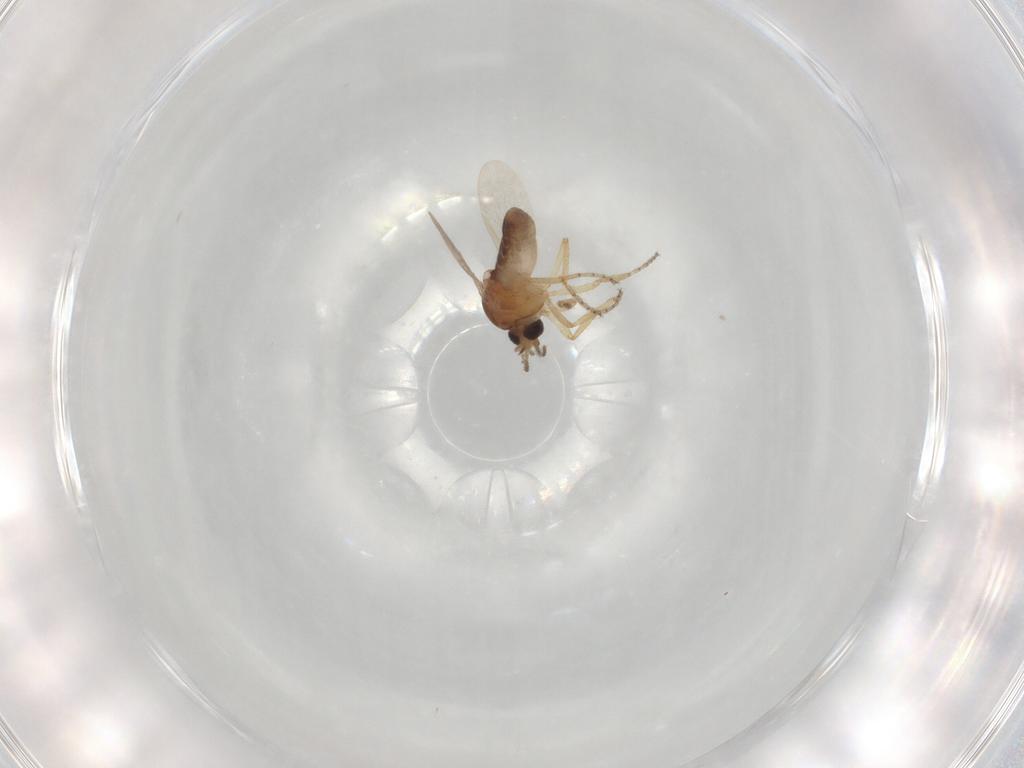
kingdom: Animalia
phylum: Arthropoda
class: Insecta
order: Diptera
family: Ceratopogonidae
